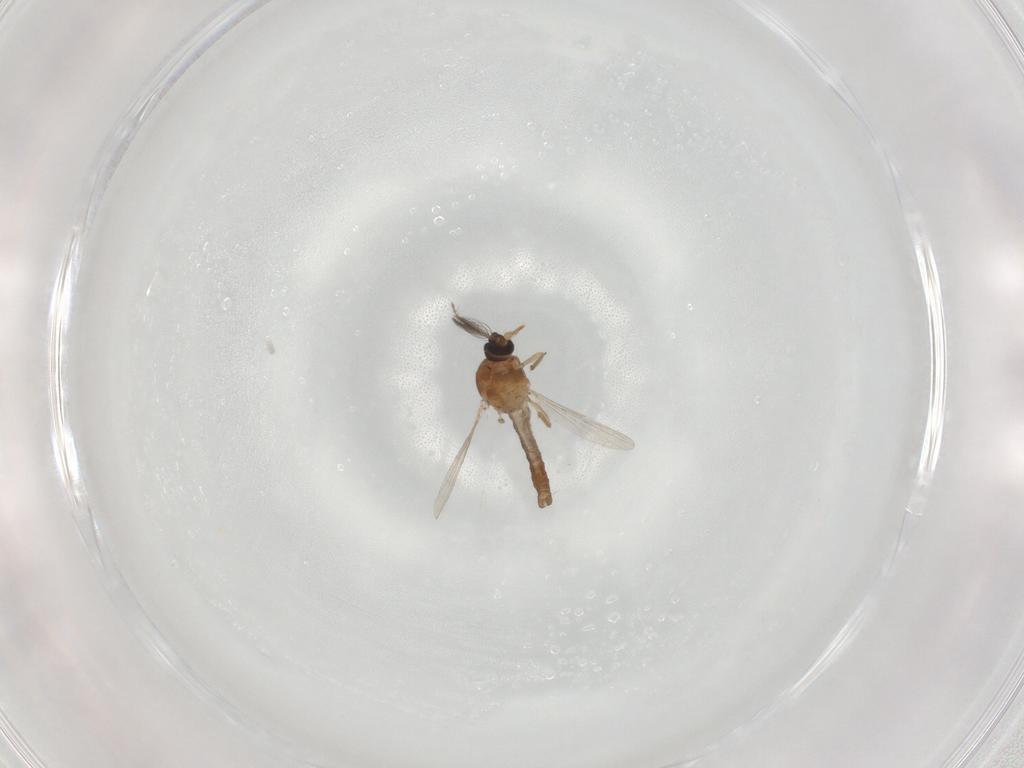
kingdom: Animalia
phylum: Arthropoda
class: Insecta
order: Diptera
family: Ceratopogonidae
